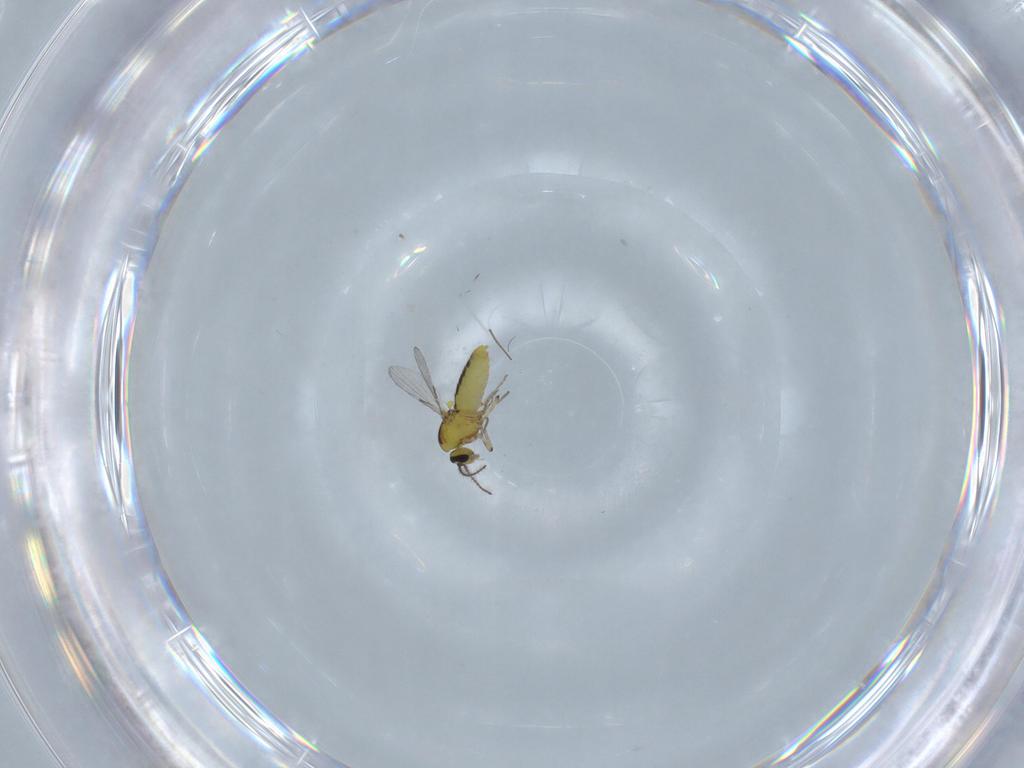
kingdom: Animalia
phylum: Arthropoda
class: Insecta
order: Diptera
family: Ceratopogonidae
